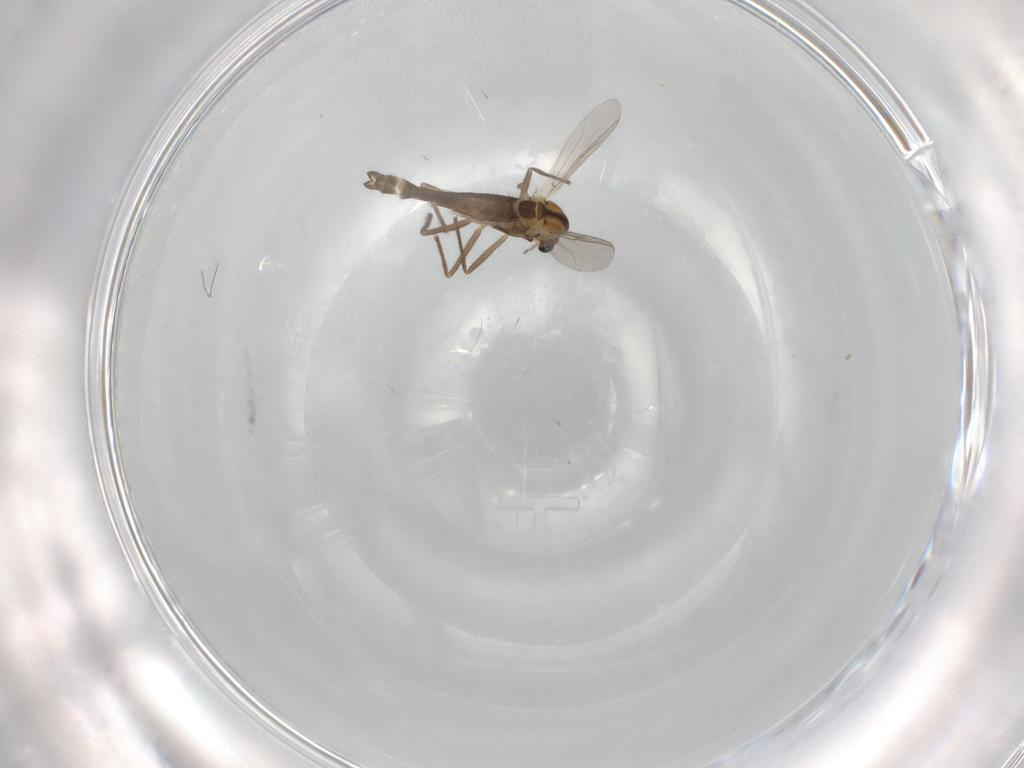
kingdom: Animalia
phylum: Arthropoda
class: Insecta
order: Diptera
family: Chironomidae
